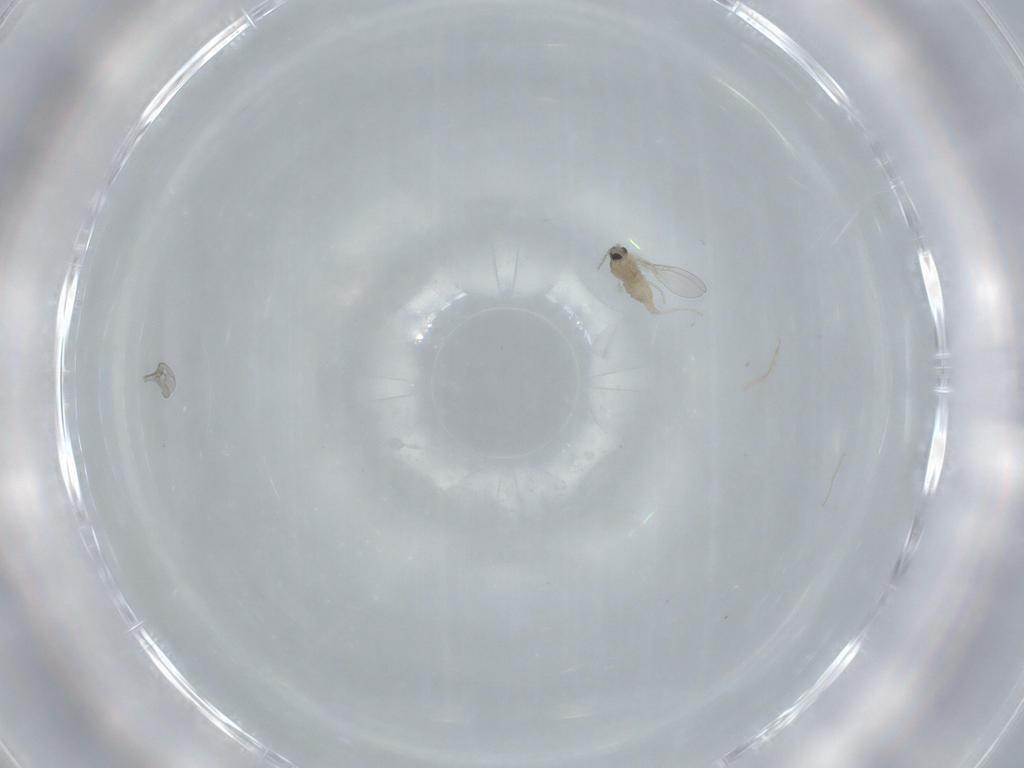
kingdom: Animalia
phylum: Arthropoda
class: Insecta
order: Diptera
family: Cecidomyiidae
